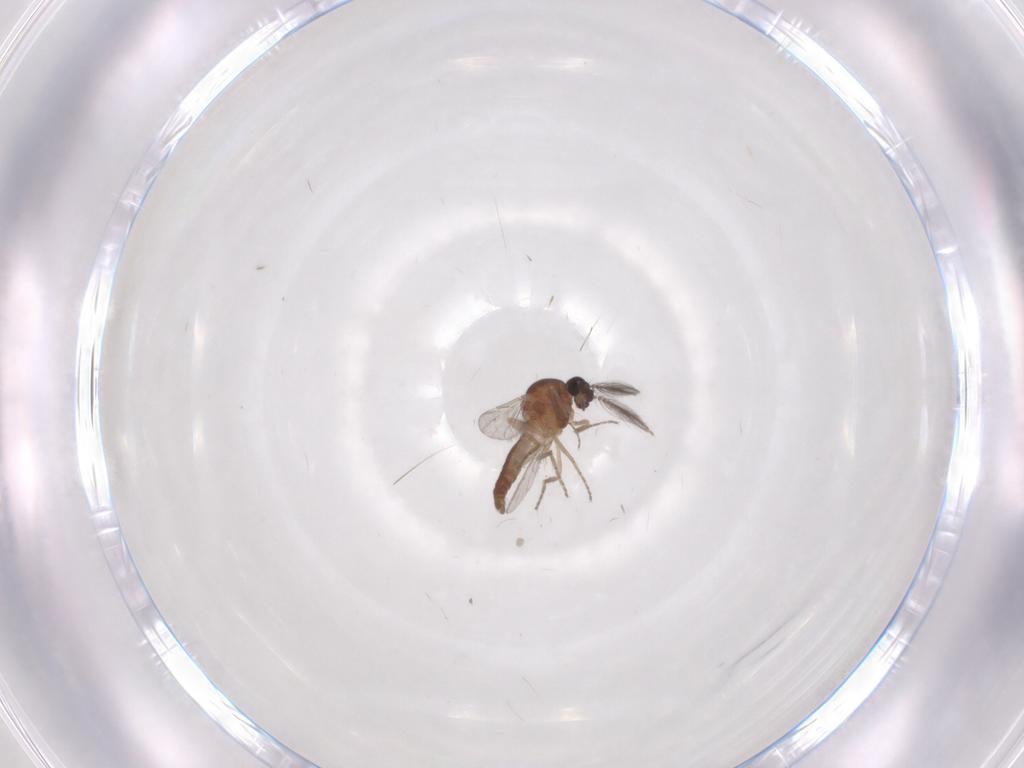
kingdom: Animalia
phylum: Arthropoda
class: Insecta
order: Diptera
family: Ceratopogonidae
